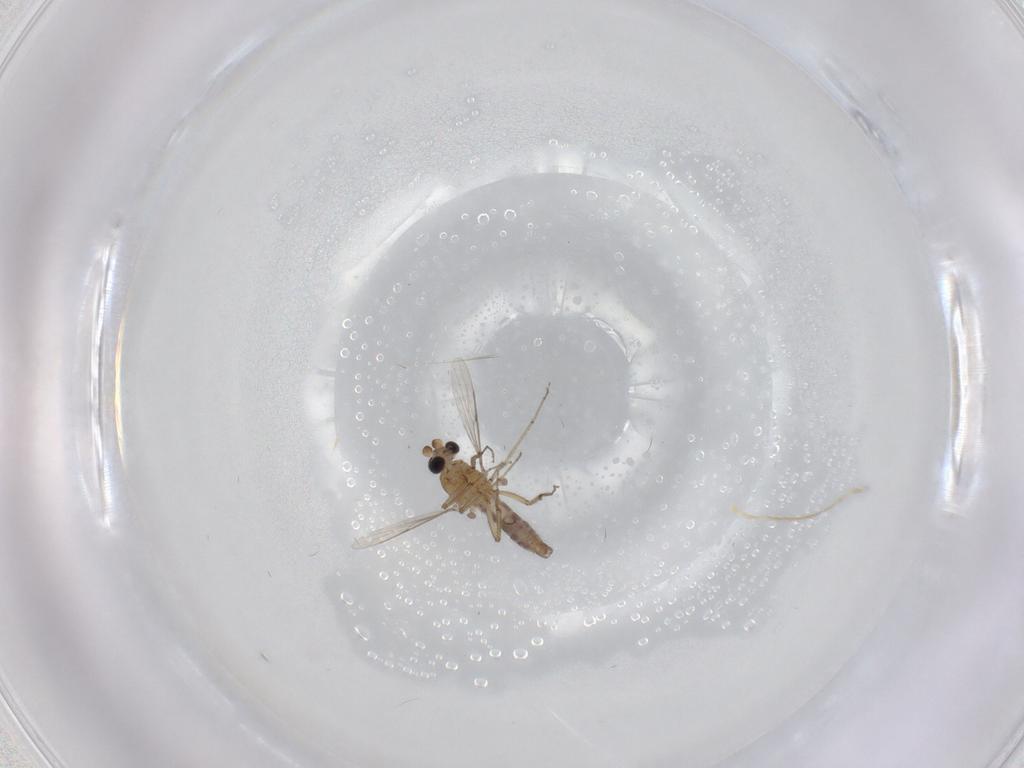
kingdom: Animalia
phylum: Arthropoda
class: Insecta
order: Diptera
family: Ceratopogonidae
